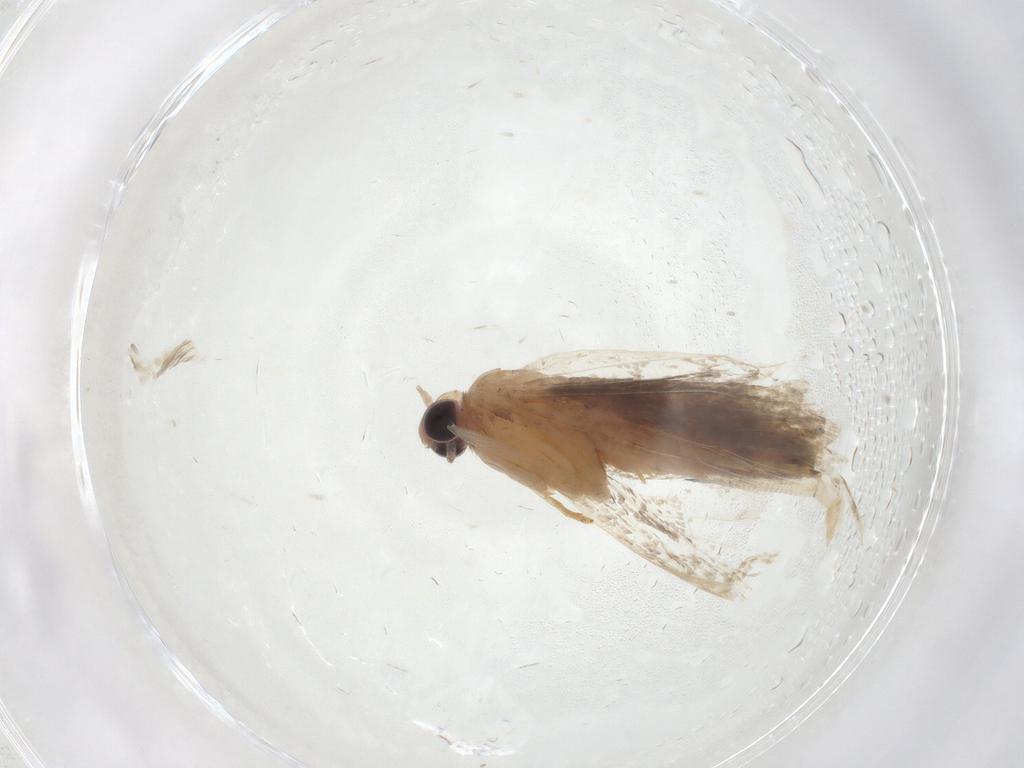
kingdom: Animalia
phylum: Arthropoda
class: Insecta
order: Lepidoptera
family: Crambidae
